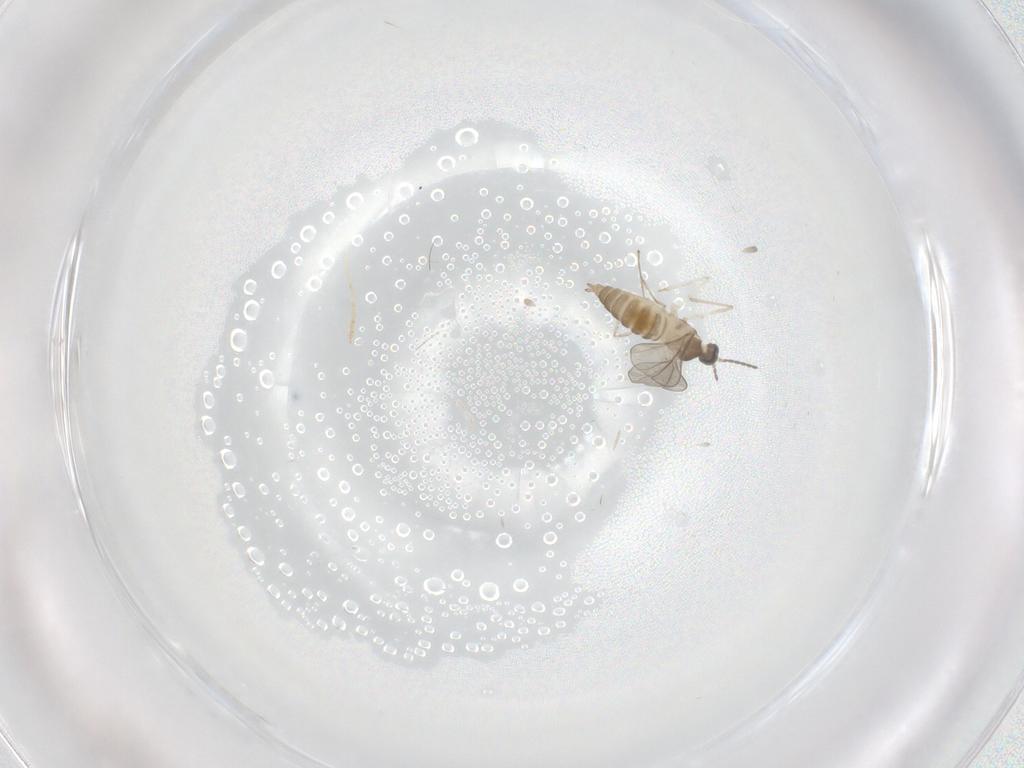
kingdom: Animalia
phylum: Arthropoda
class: Insecta
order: Diptera
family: Cecidomyiidae
